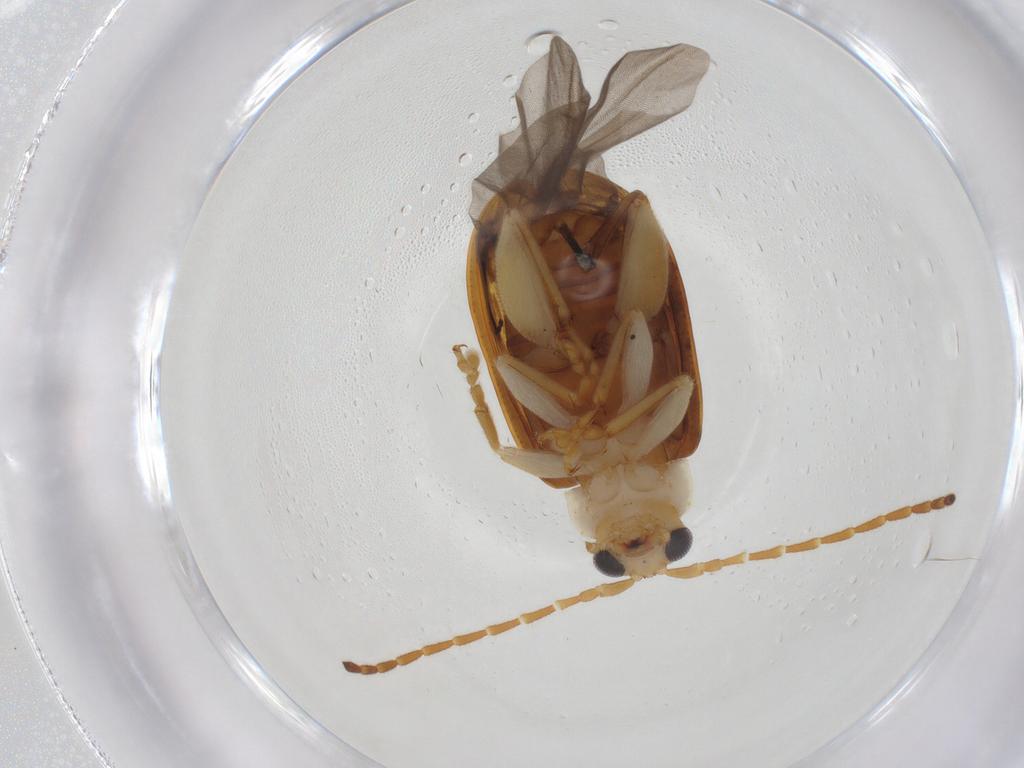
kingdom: Animalia
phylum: Arthropoda
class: Insecta
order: Coleoptera
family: Chrysomelidae
